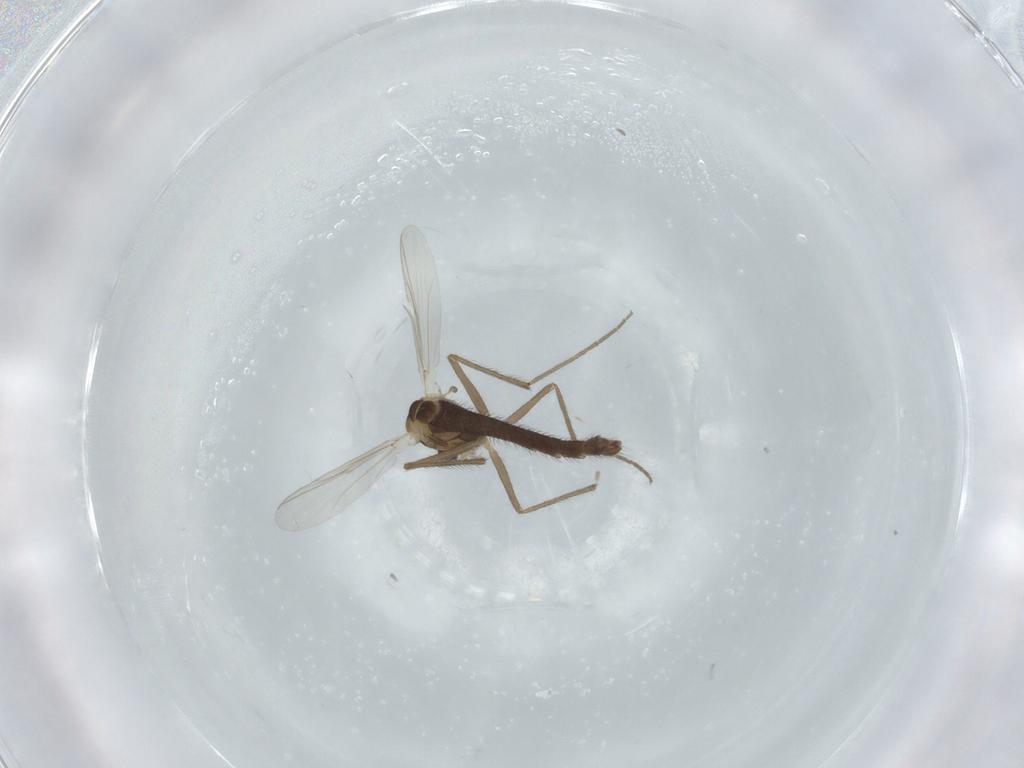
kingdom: Animalia
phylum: Arthropoda
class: Insecta
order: Diptera
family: Chironomidae
